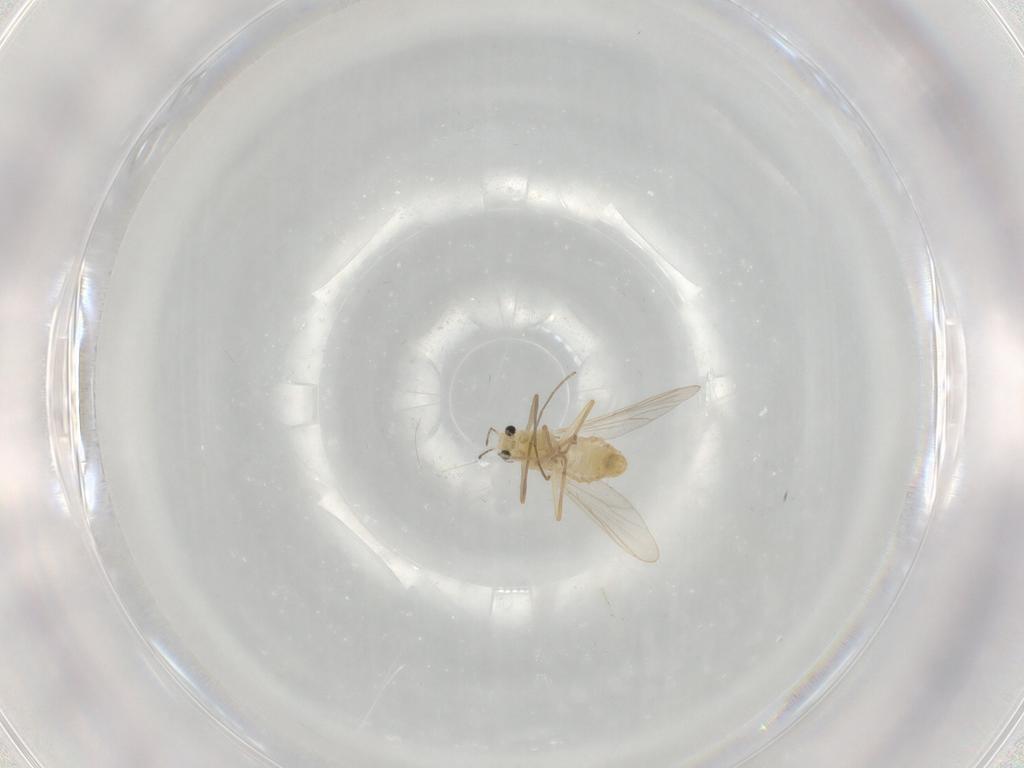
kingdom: Animalia
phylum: Arthropoda
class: Insecta
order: Diptera
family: Chironomidae
